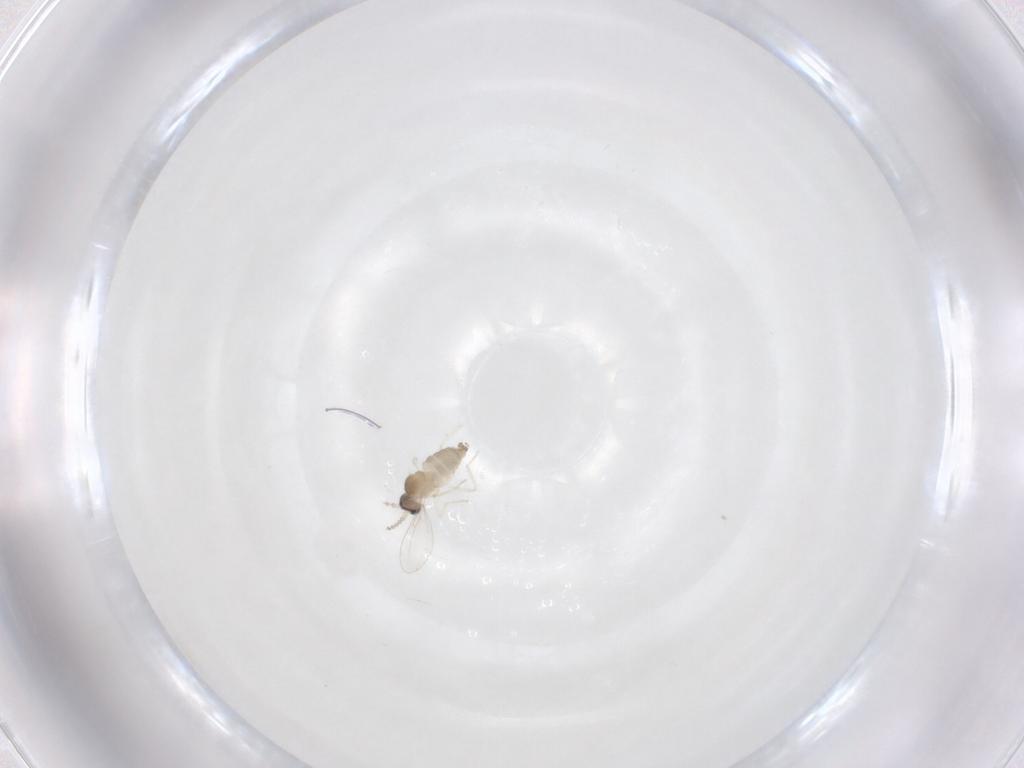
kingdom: Animalia
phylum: Arthropoda
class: Insecta
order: Diptera
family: Cecidomyiidae
